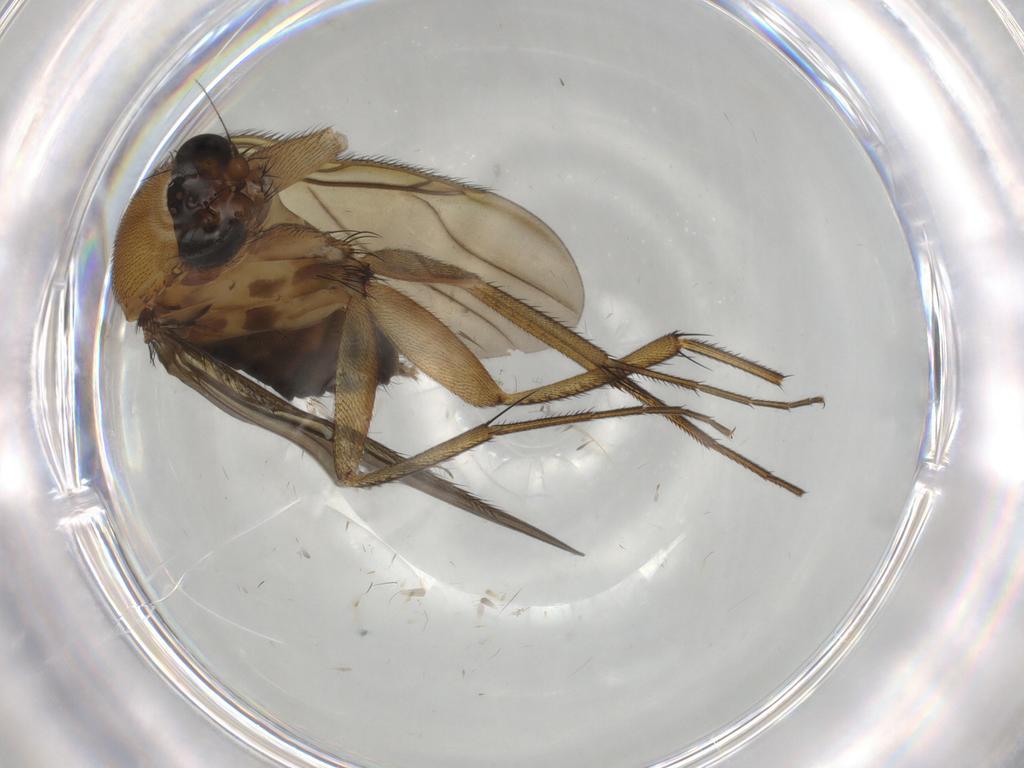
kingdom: Animalia
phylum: Arthropoda
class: Insecta
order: Diptera
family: Phoridae
